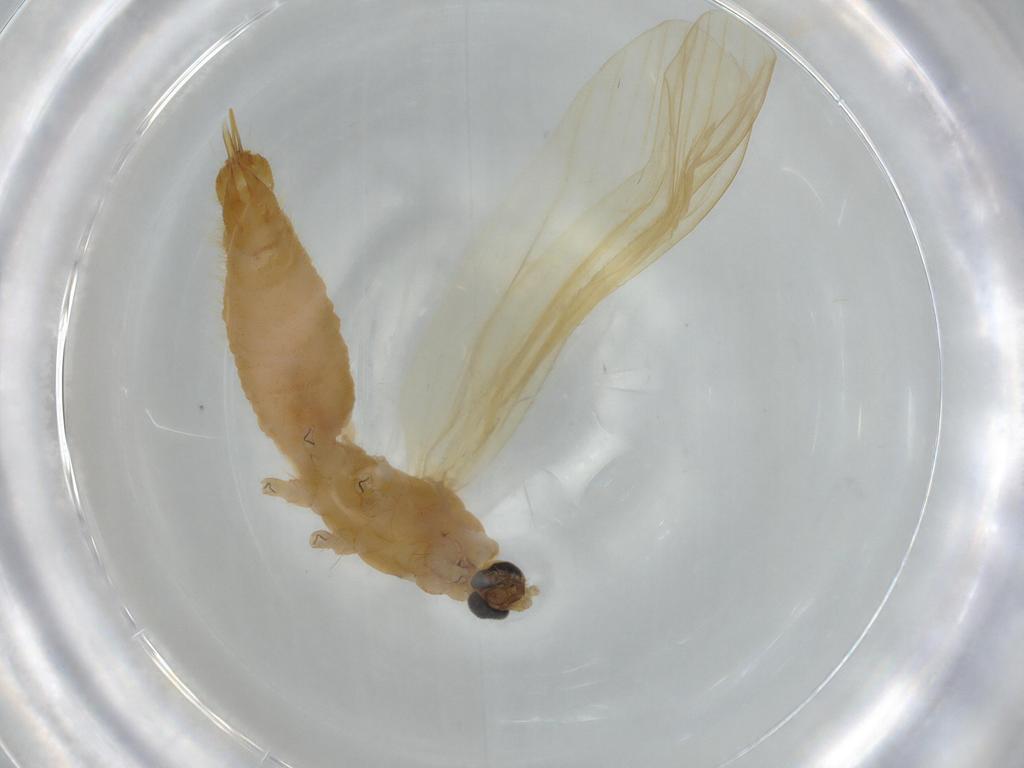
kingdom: Animalia
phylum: Arthropoda
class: Insecta
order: Diptera
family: Limoniidae
